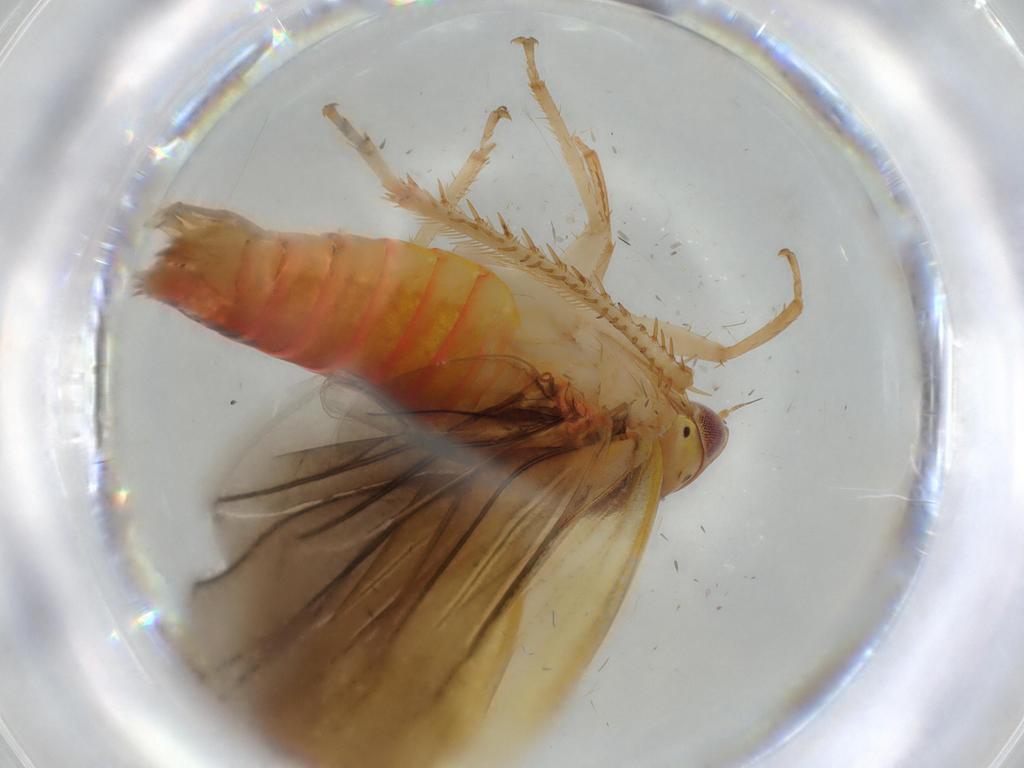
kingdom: Animalia
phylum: Arthropoda
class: Insecta
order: Hemiptera
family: Cicadellidae
